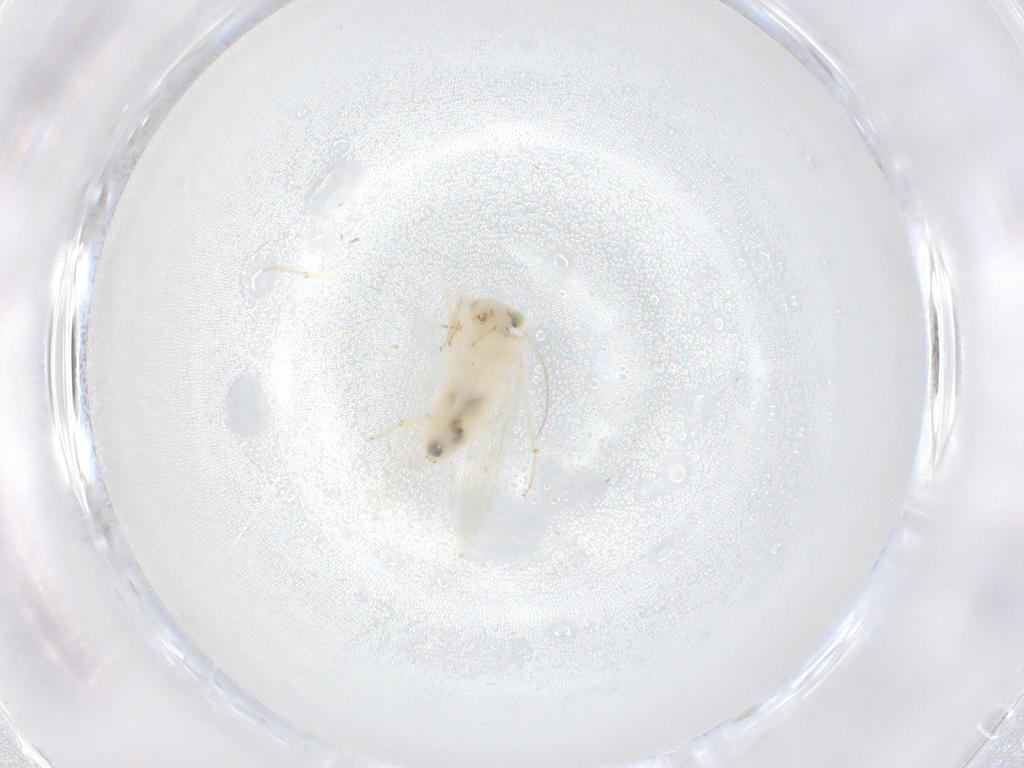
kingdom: Animalia
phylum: Arthropoda
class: Insecta
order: Psocodea
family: Lepidopsocidae
